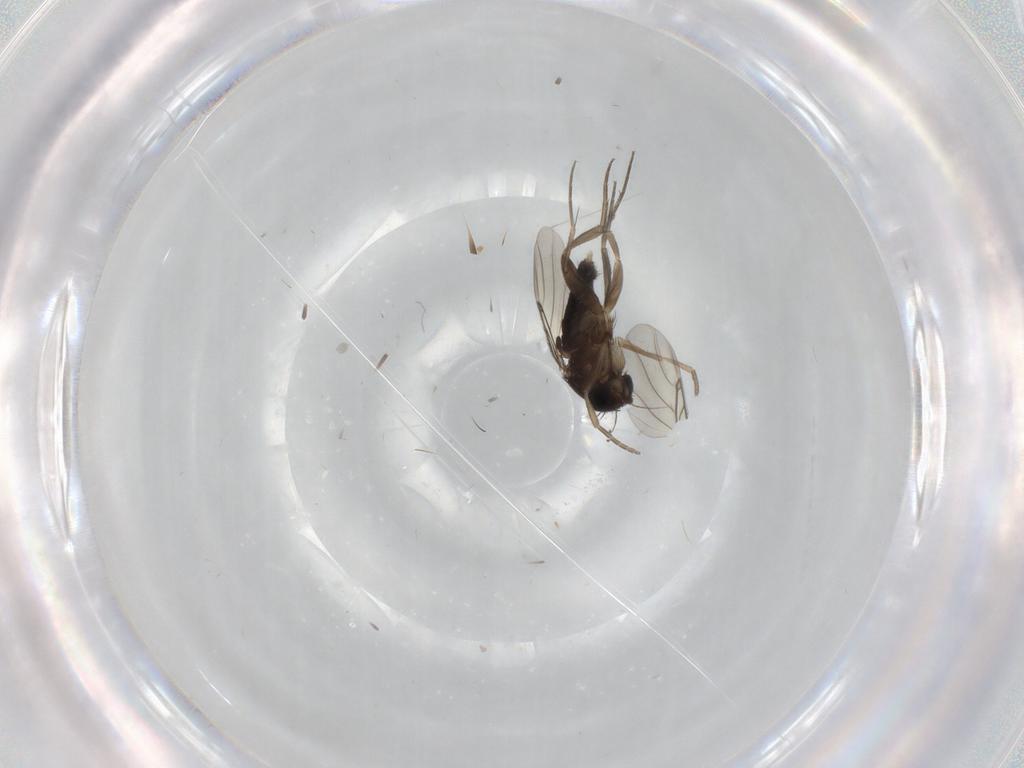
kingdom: Animalia
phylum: Arthropoda
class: Insecta
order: Diptera
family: Phoridae
